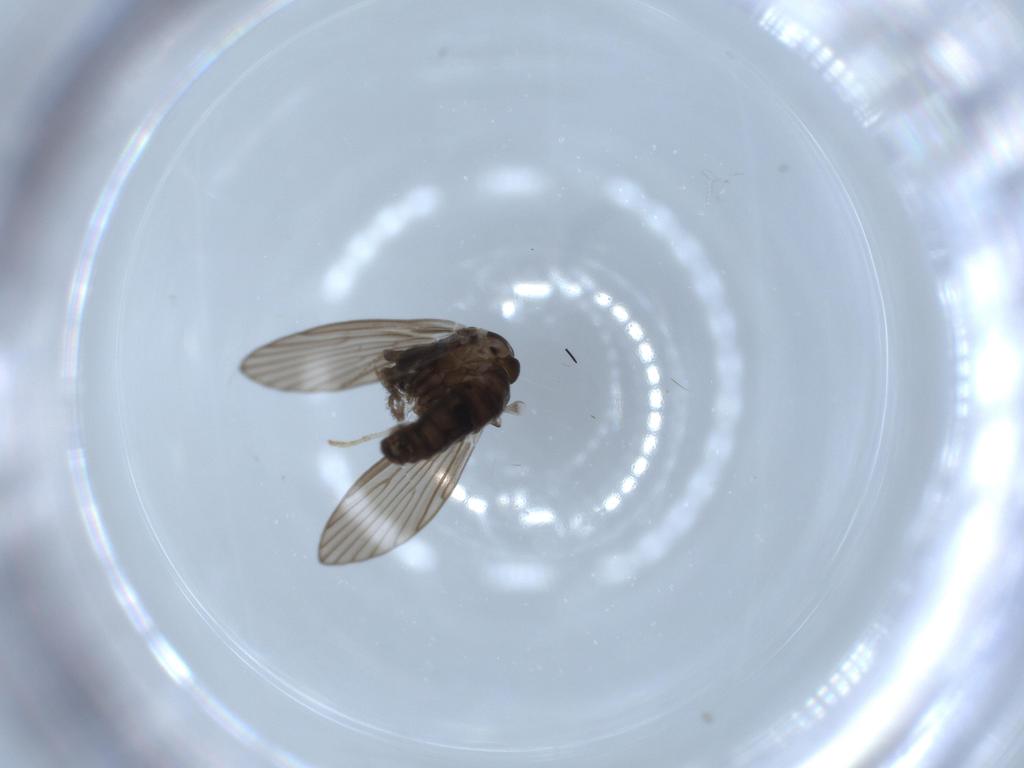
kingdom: Animalia
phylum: Arthropoda
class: Insecta
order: Diptera
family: Psychodidae
